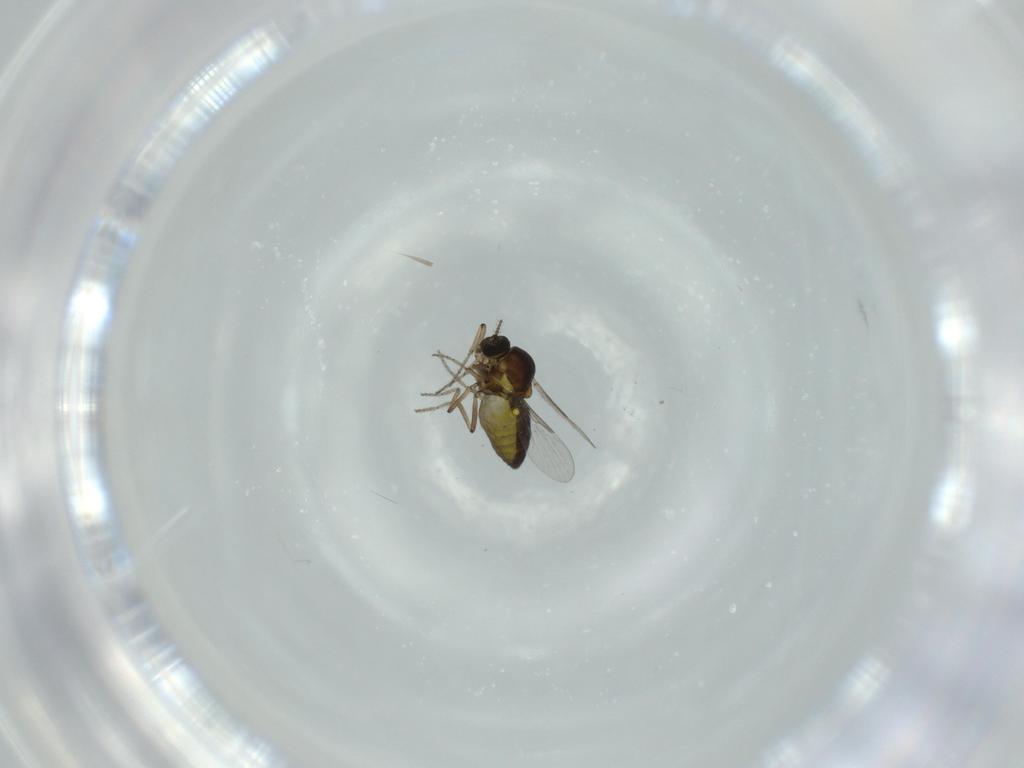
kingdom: Animalia
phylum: Arthropoda
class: Insecta
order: Diptera
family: Ceratopogonidae
